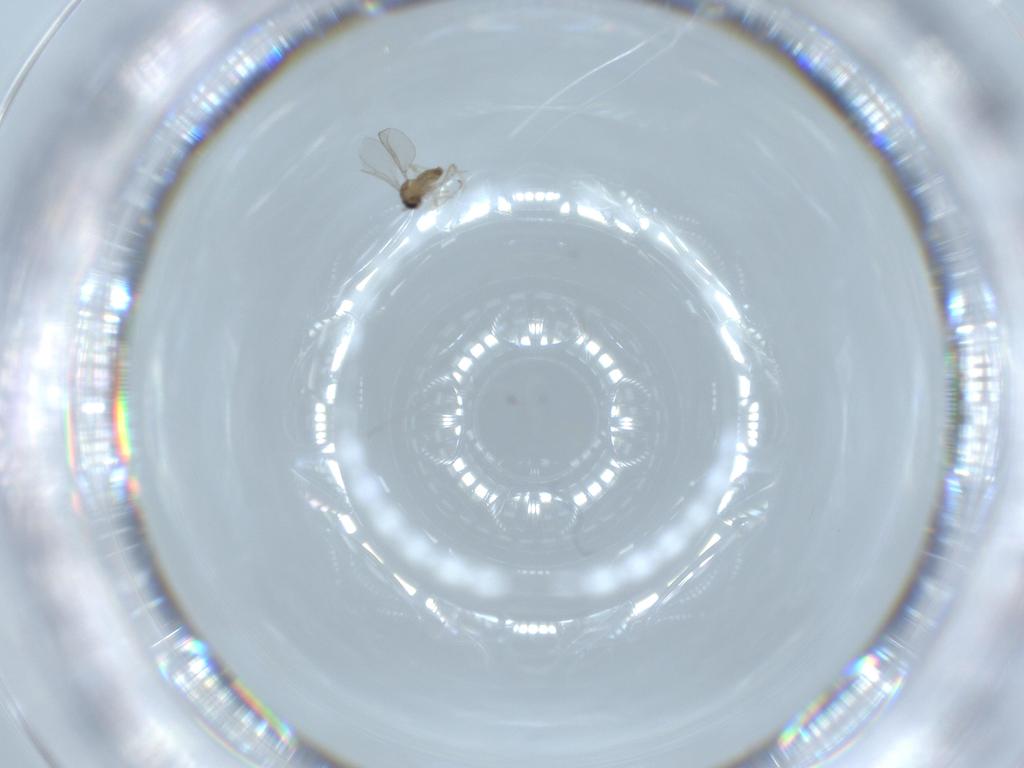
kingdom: Animalia
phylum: Arthropoda
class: Insecta
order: Diptera
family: Cecidomyiidae
